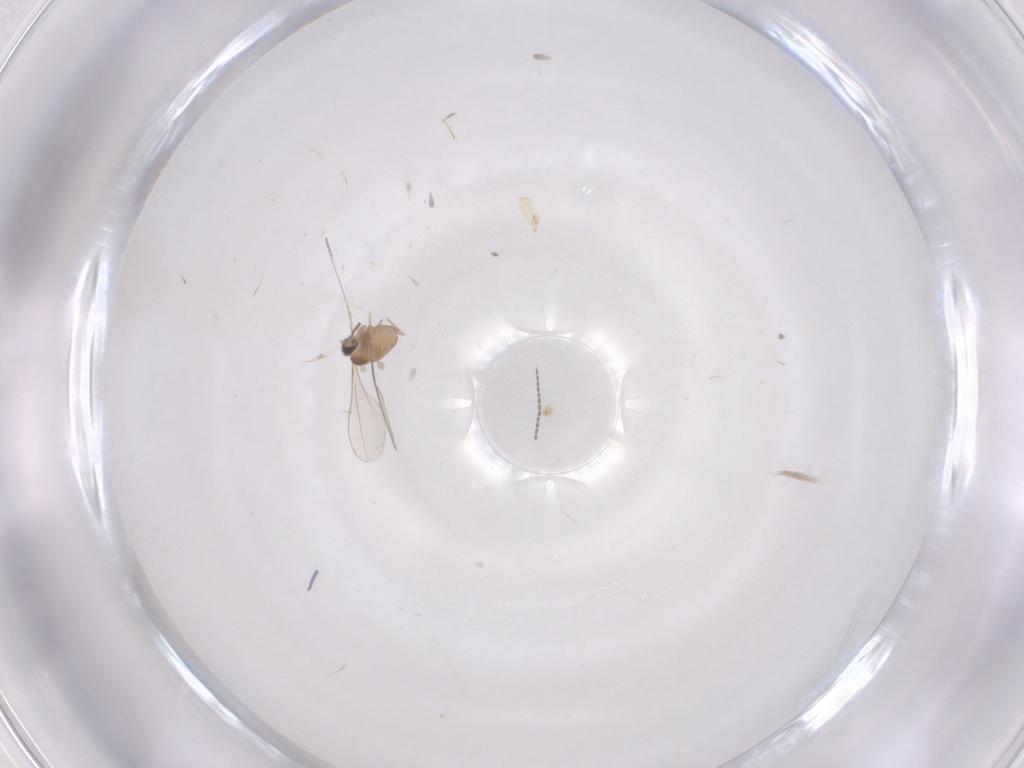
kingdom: Animalia
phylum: Arthropoda
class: Insecta
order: Diptera
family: Cecidomyiidae
